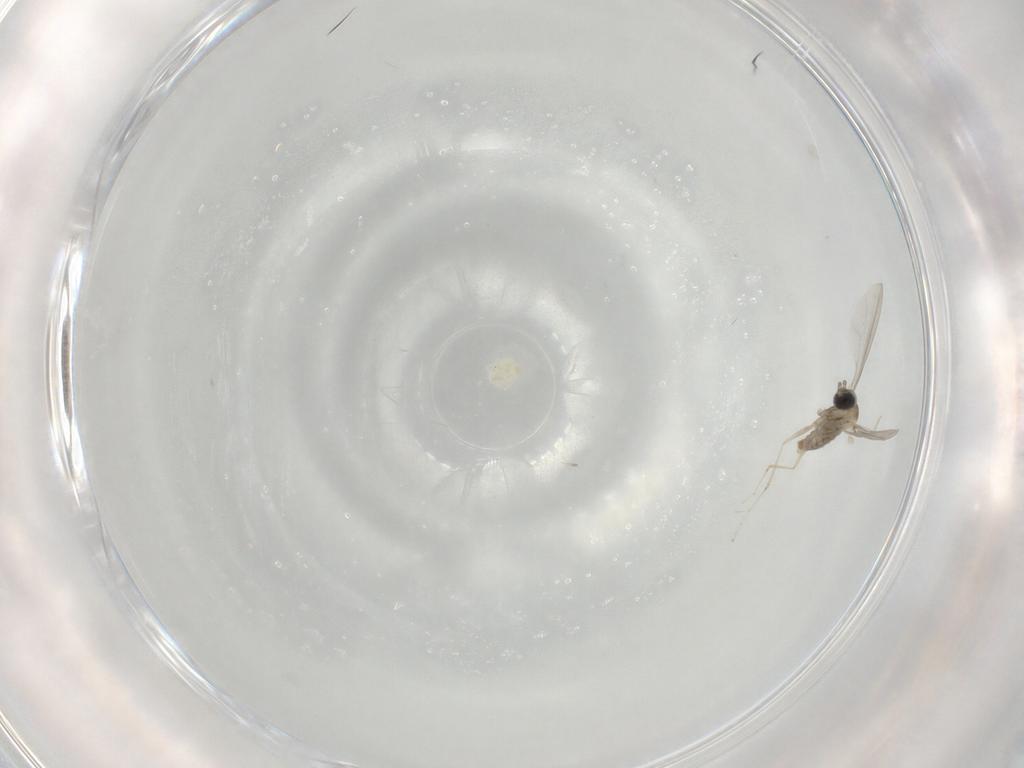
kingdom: Animalia
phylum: Arthropoda
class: Insecta
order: Diptera
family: Cecidomyiidae
